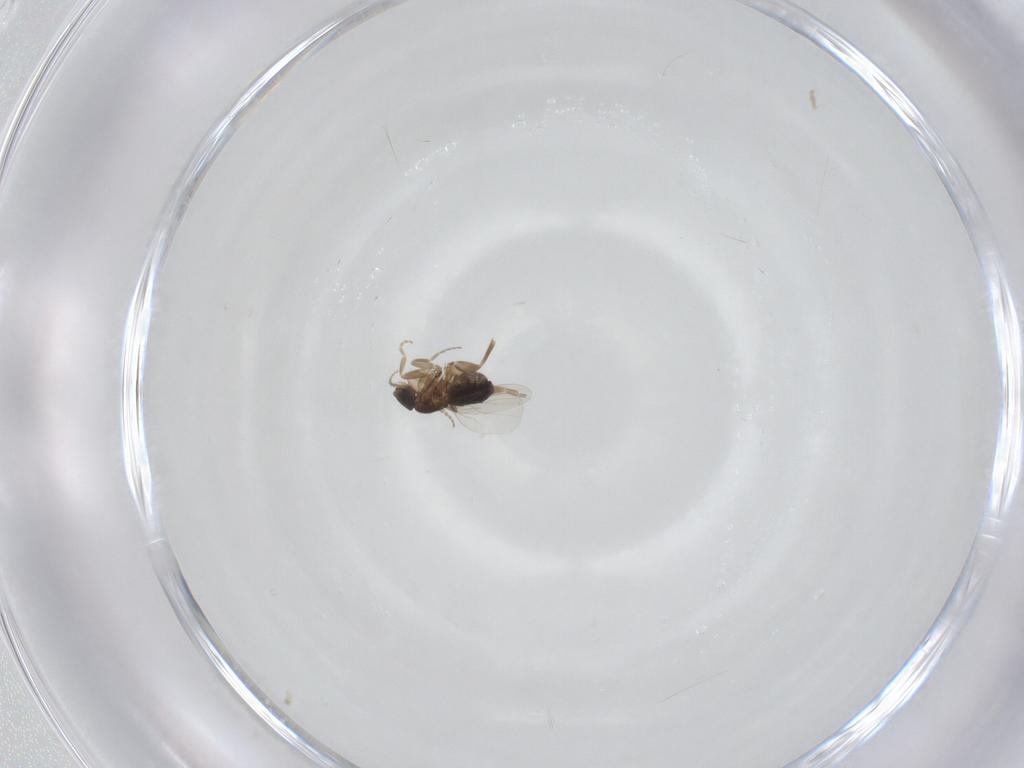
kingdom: Animalia
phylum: Arthropoda
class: Insecta
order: Diptera
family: Phoridae
